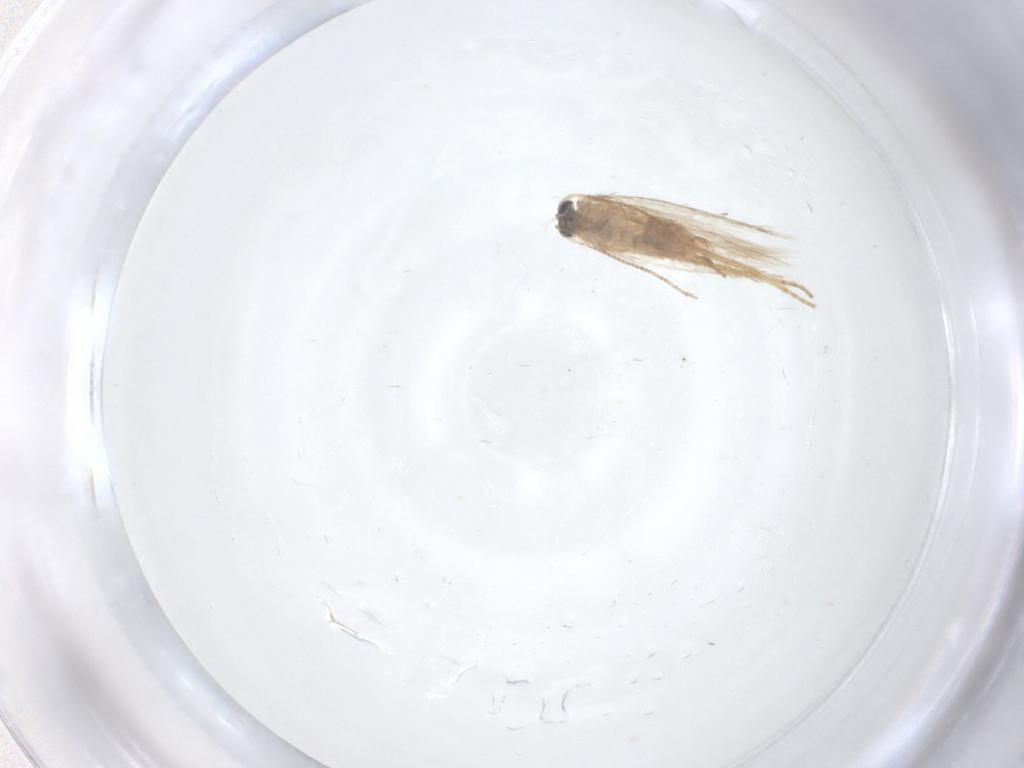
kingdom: Animalia
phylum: Arthropoda
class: Insecta
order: Lepidoptera
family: Nepticulidae
